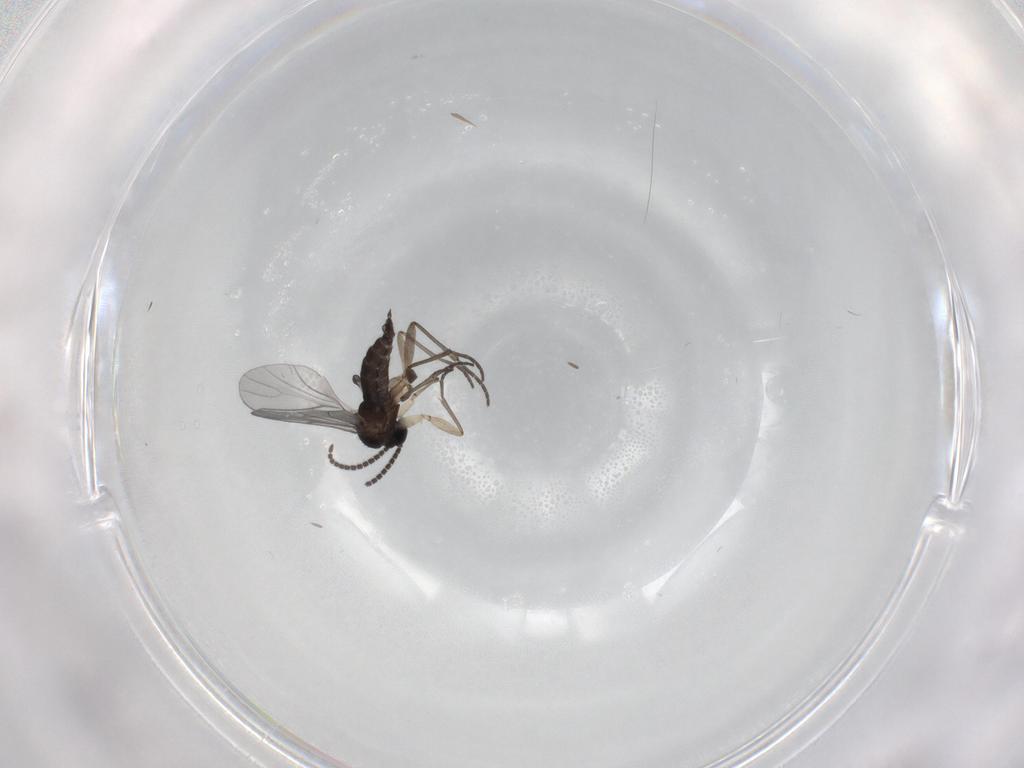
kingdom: Animalia
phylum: Arthropoda
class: Insecta
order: Diptera
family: Sciaridae
